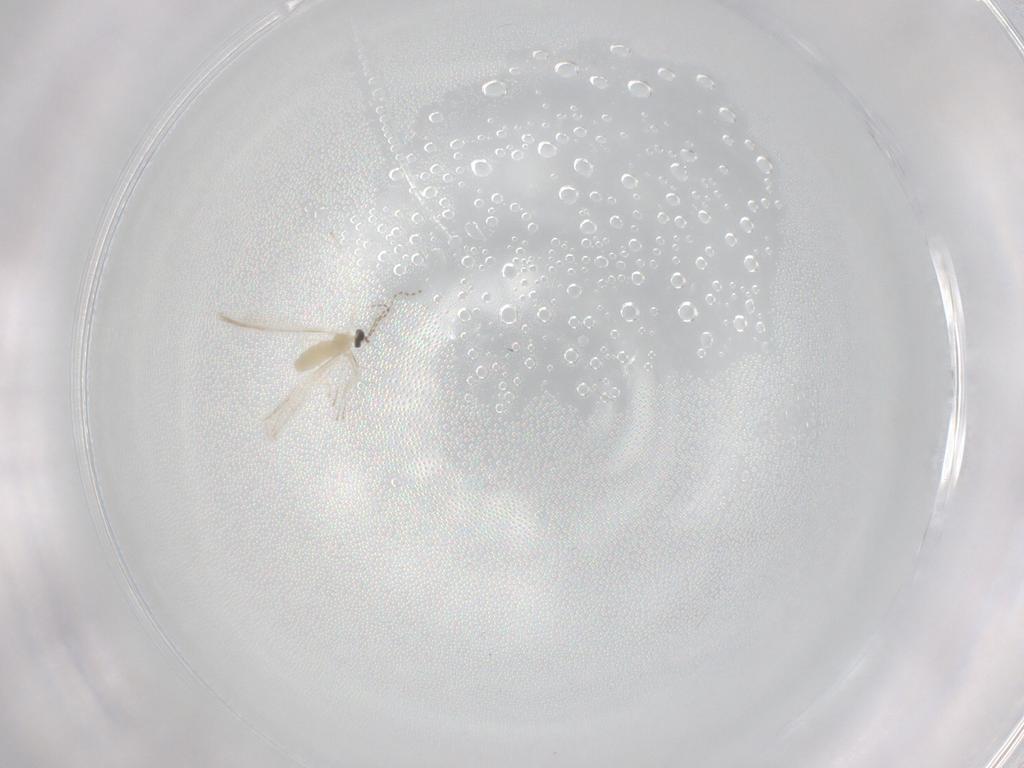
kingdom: Animalia
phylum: Arthropoda
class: Insecta
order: Diptera
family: Cecidomyiidae
